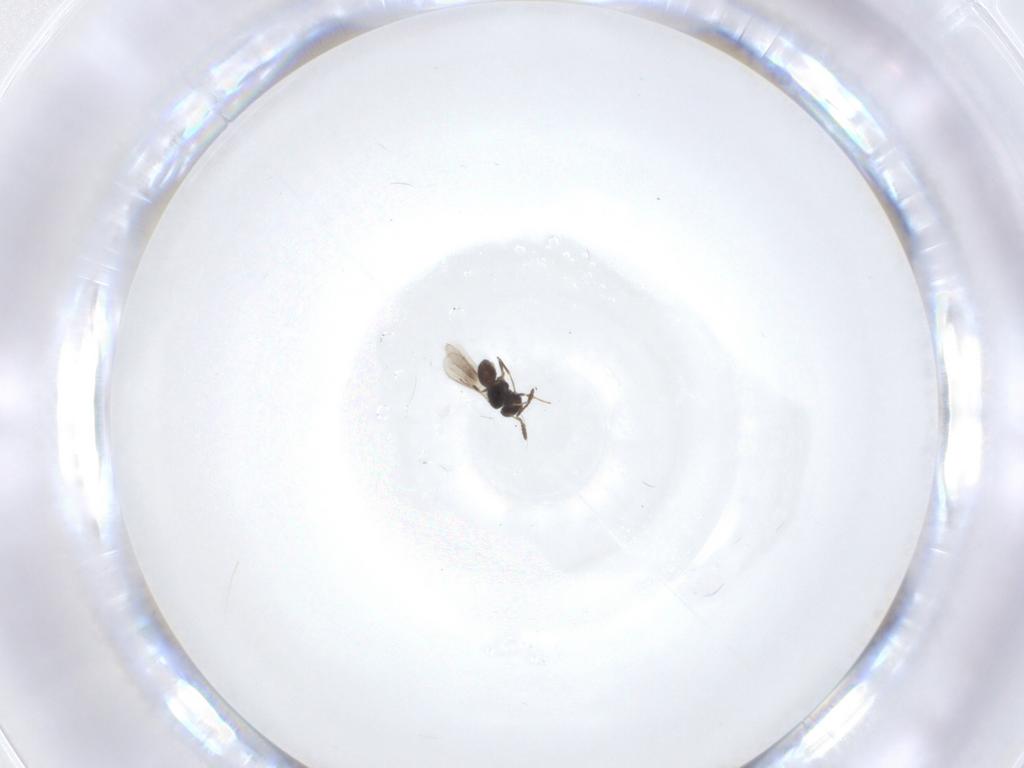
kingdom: Animalia
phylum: Arthropoda
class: Insecta
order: Hymenoptera
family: Scelionidae
